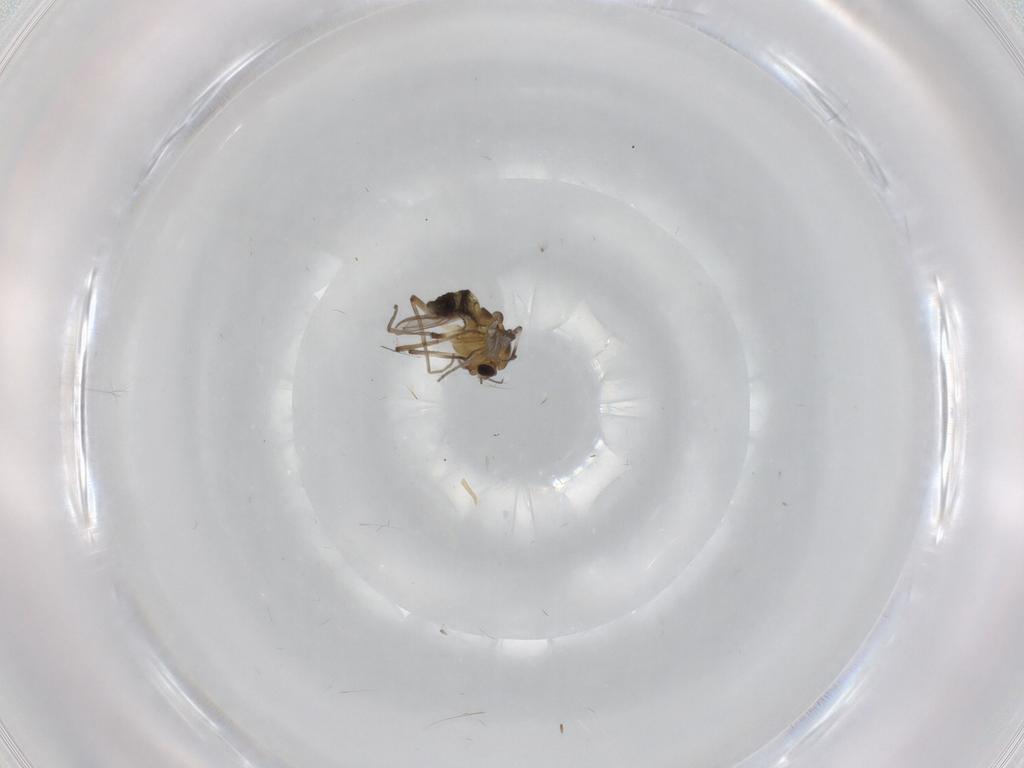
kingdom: Animalia
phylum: Arthropoda
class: Insecta
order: Diptera
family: Chironomidae
